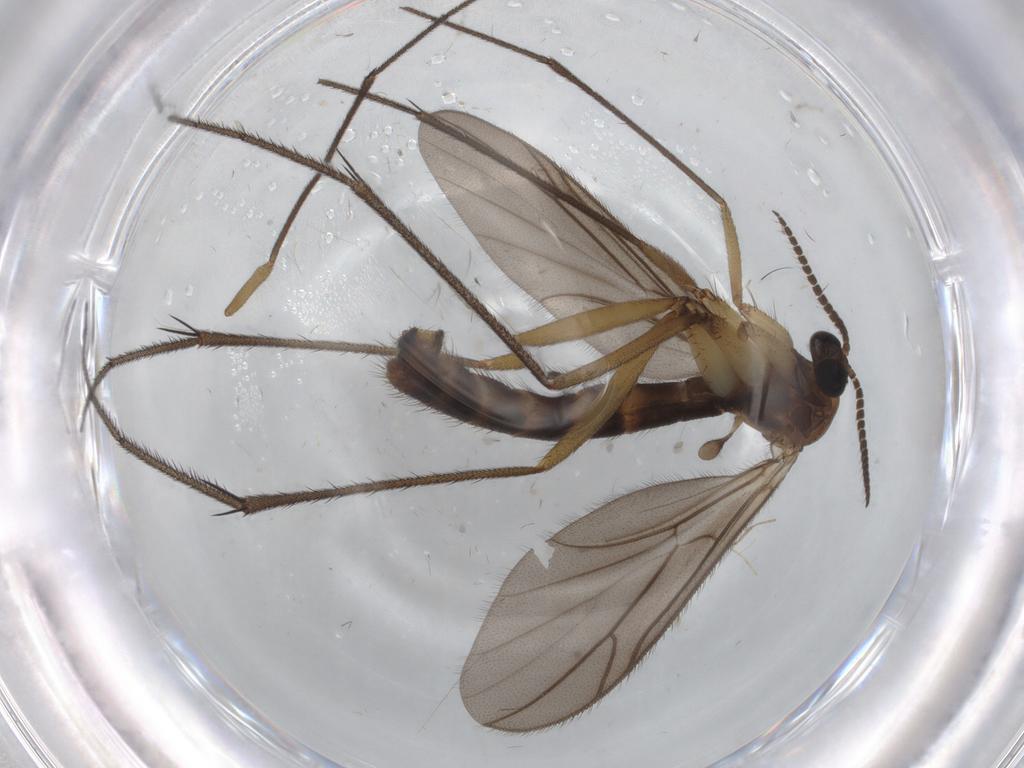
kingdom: Animalia
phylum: Arthropoda
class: Insecta
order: Diptera
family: Ditomyiidae
